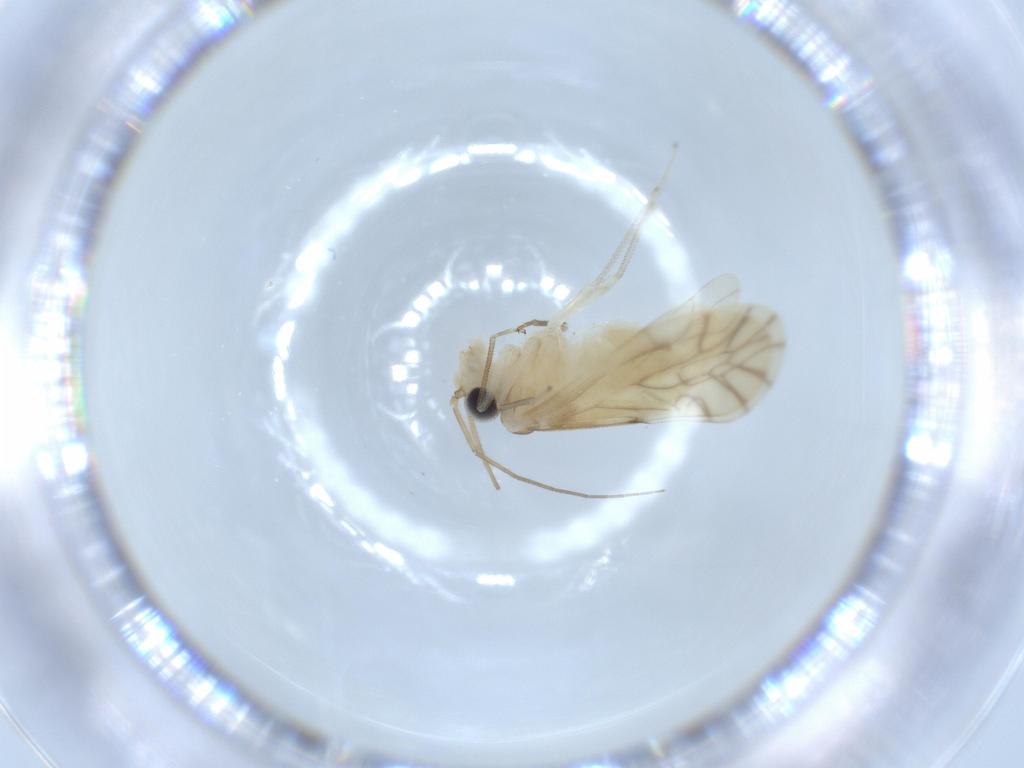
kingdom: Animalia
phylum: Arthropoda
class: Insecta
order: Psocodea
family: Caeciliusidae
